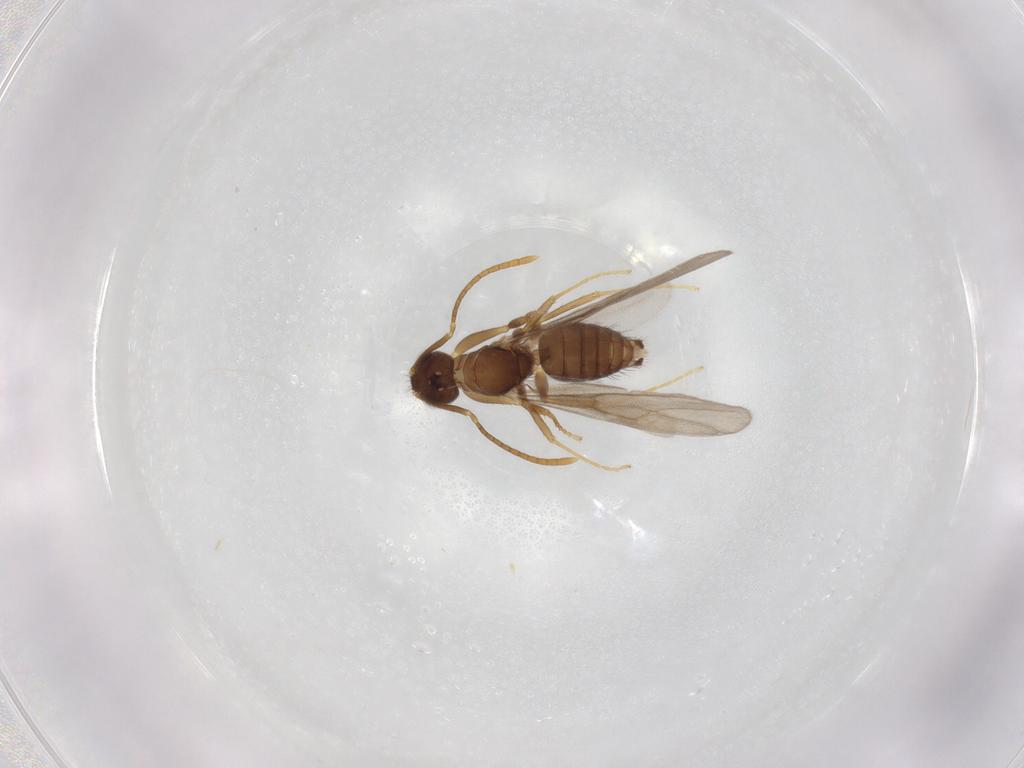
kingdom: Animalia
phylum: Arthropoda
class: Insecta
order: Hymenoptera
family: Formicidae
